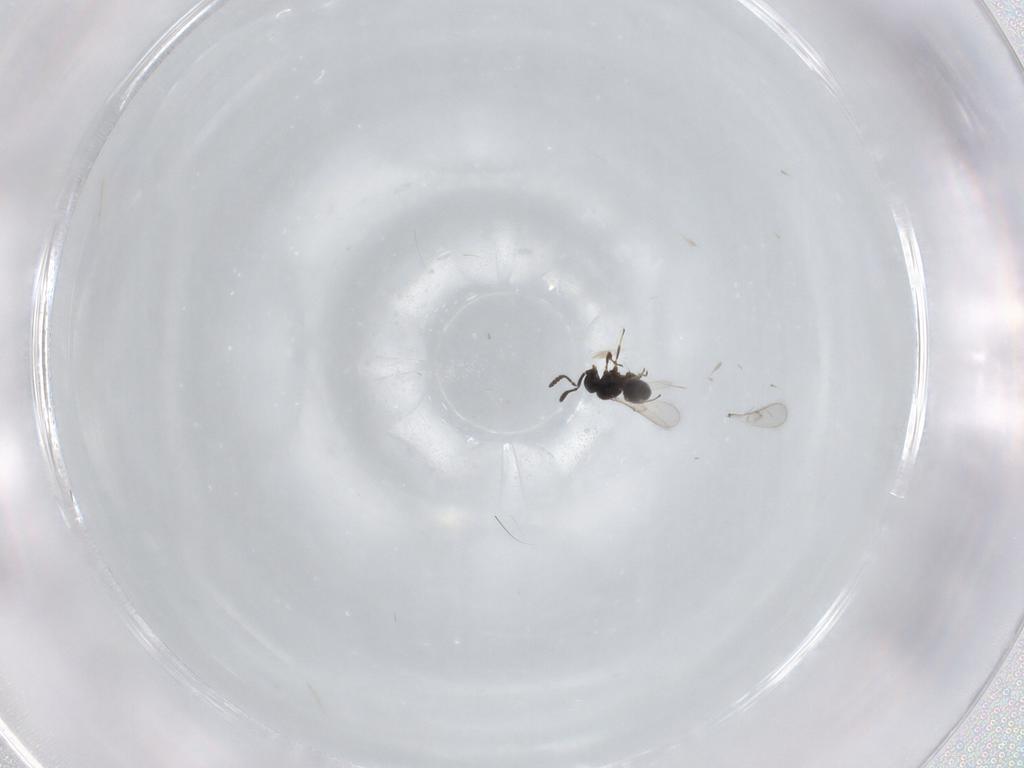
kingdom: Animalia
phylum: Arthropoda
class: Insecta
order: Hymenoptera
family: Scelionidae
